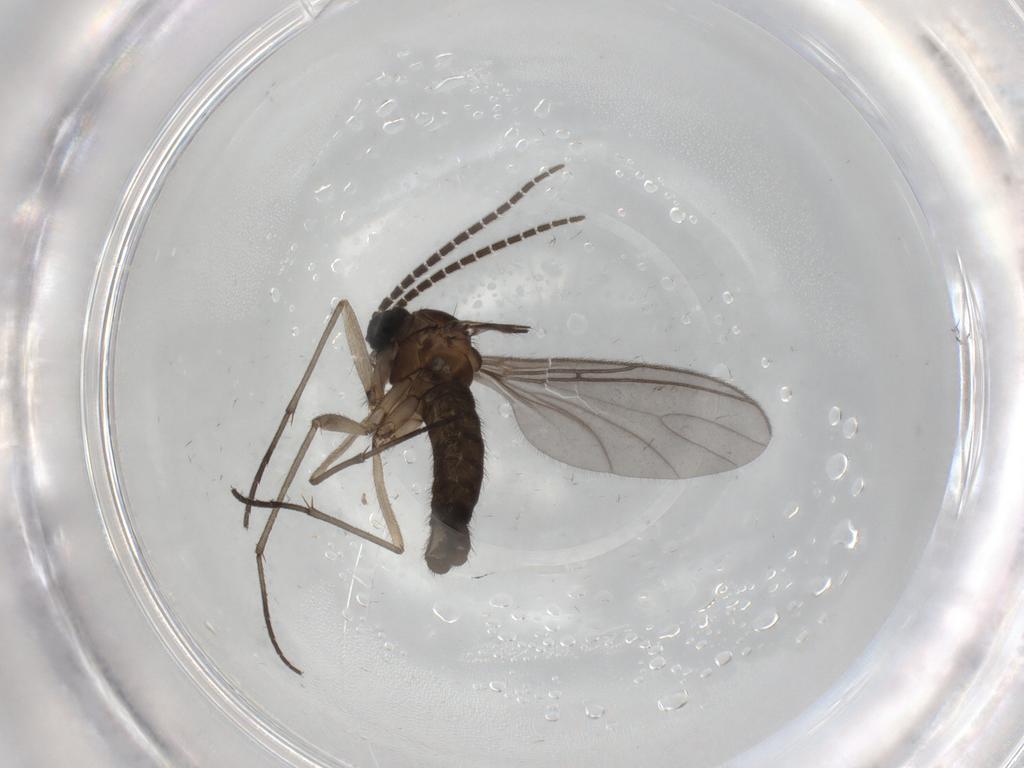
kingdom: Animalia
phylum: Arthropoda
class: Insecta
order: Diptera
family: Sciaridae
